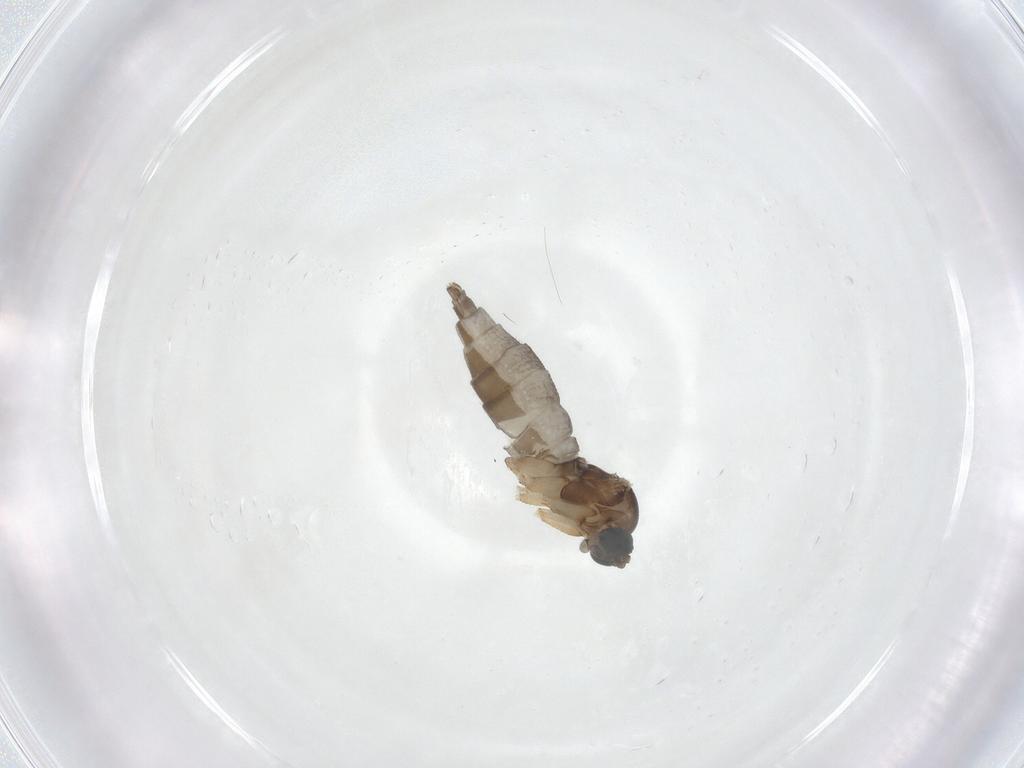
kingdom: Animalia
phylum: Arthropoda
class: Insecta
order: Diptera
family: Sciaridae
